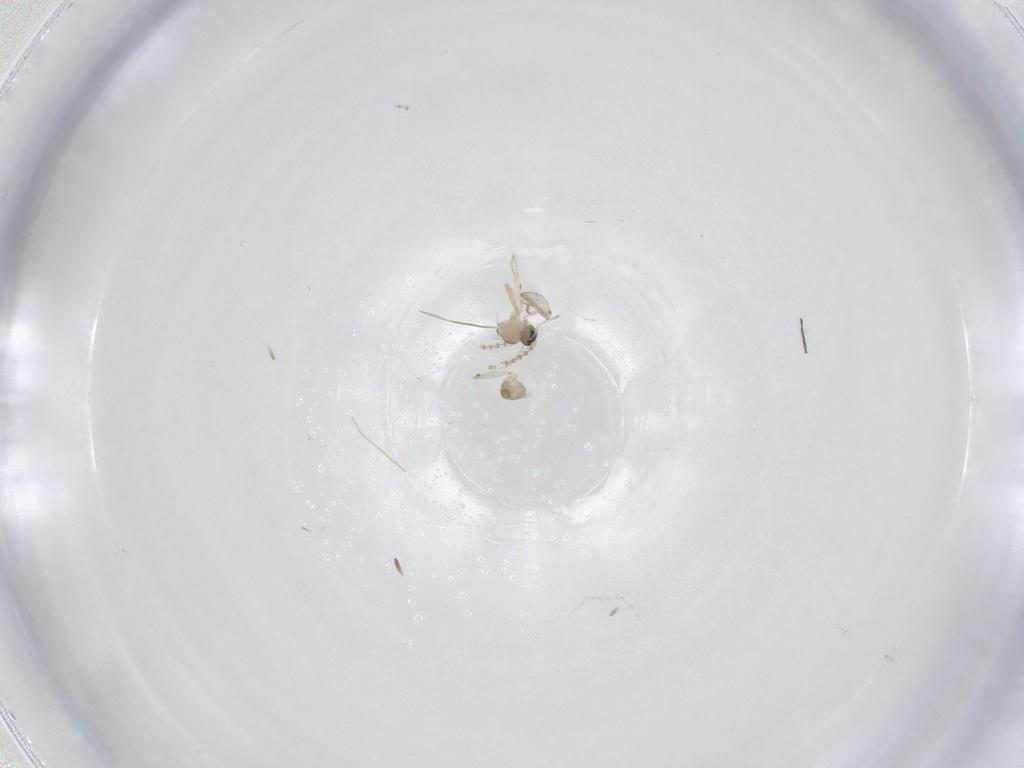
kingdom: Animalia
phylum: Arthropoda
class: Insecta
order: Diptera
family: Cecidomyiidae
